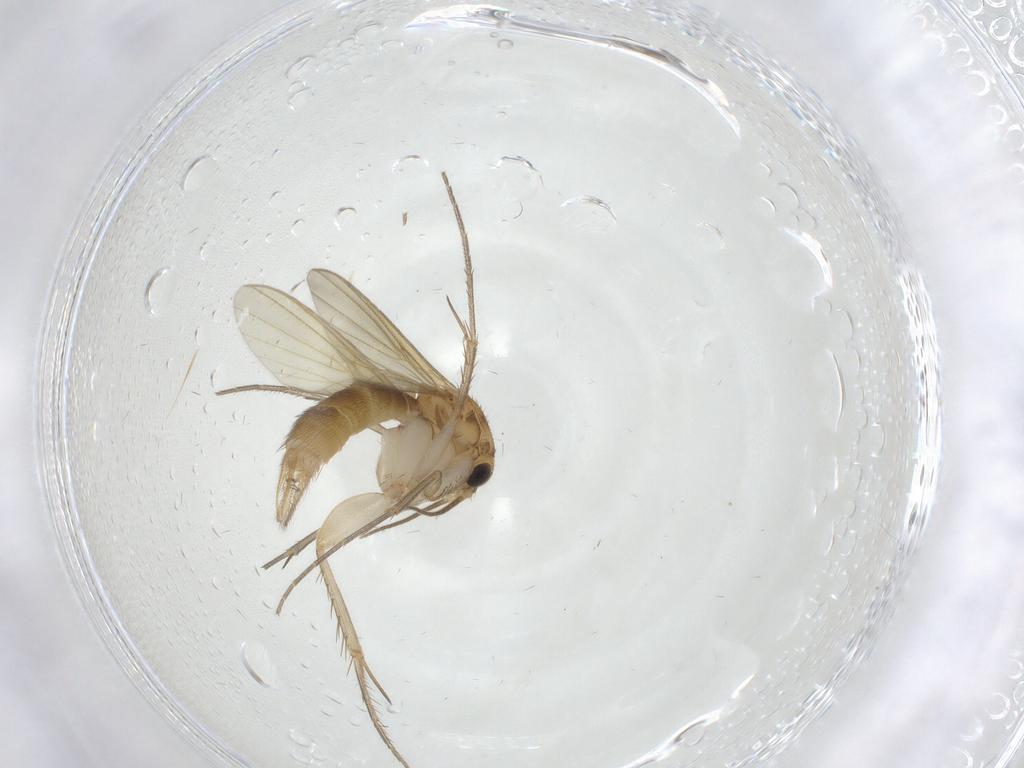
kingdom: Animalia
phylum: Arthropoda
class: Insecta
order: Diptera
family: Mycetophilidae
